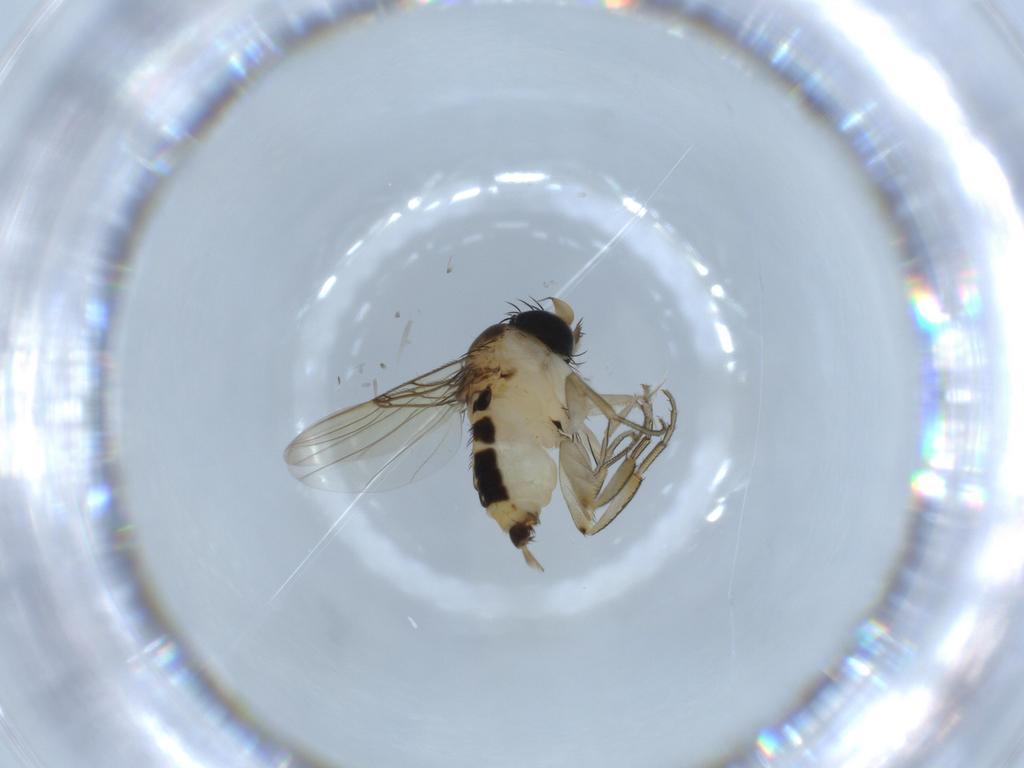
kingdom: Animalia
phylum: Arthropoda
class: Insecta
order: Diptera
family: Phoridae
